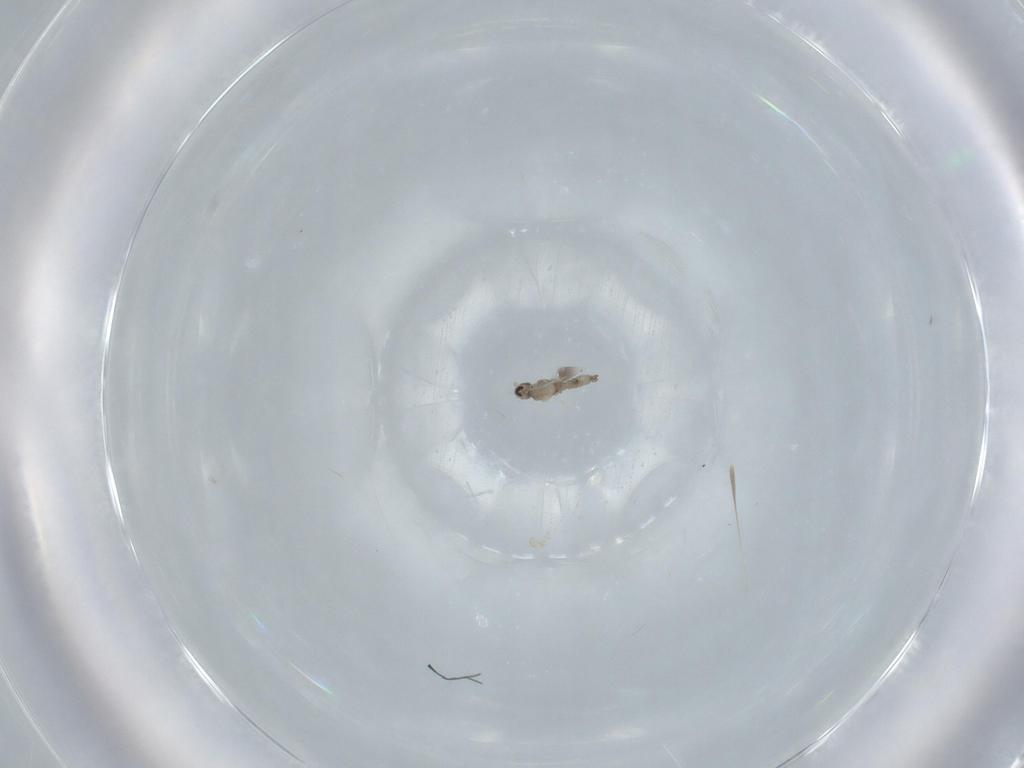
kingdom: Animalia
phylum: Arthropoda
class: Insecta
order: Diptera
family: Cecidomyiidae
